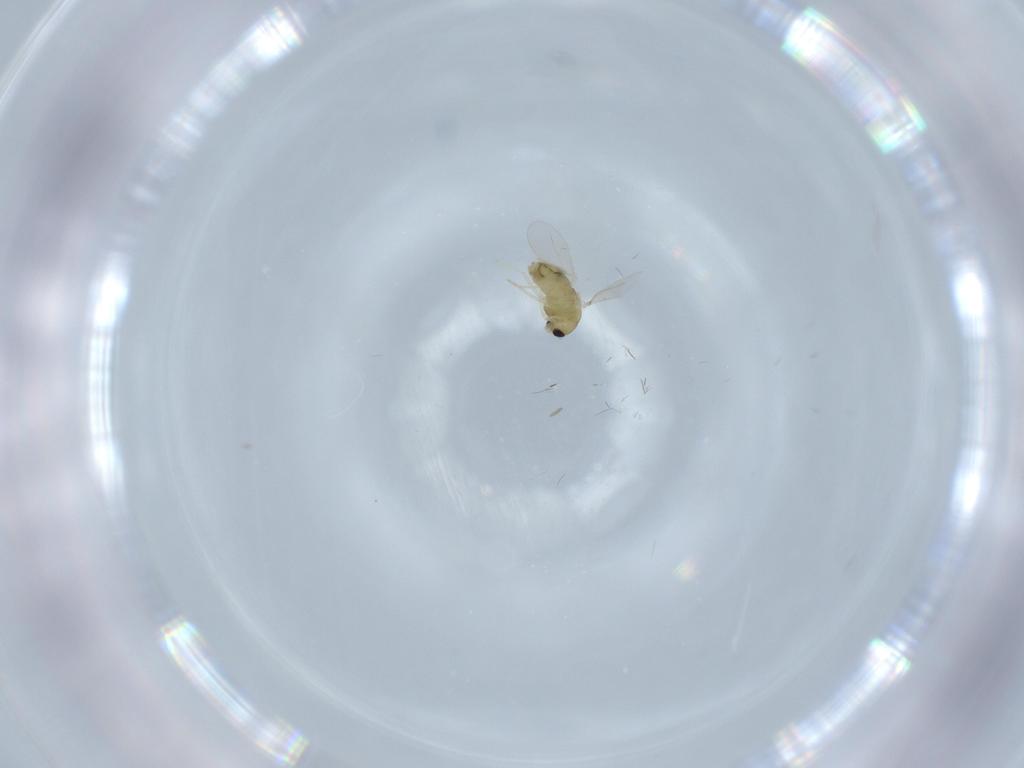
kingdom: Animalia
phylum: Arthropoda
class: Insecta
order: Diptera
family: Chironomidae
